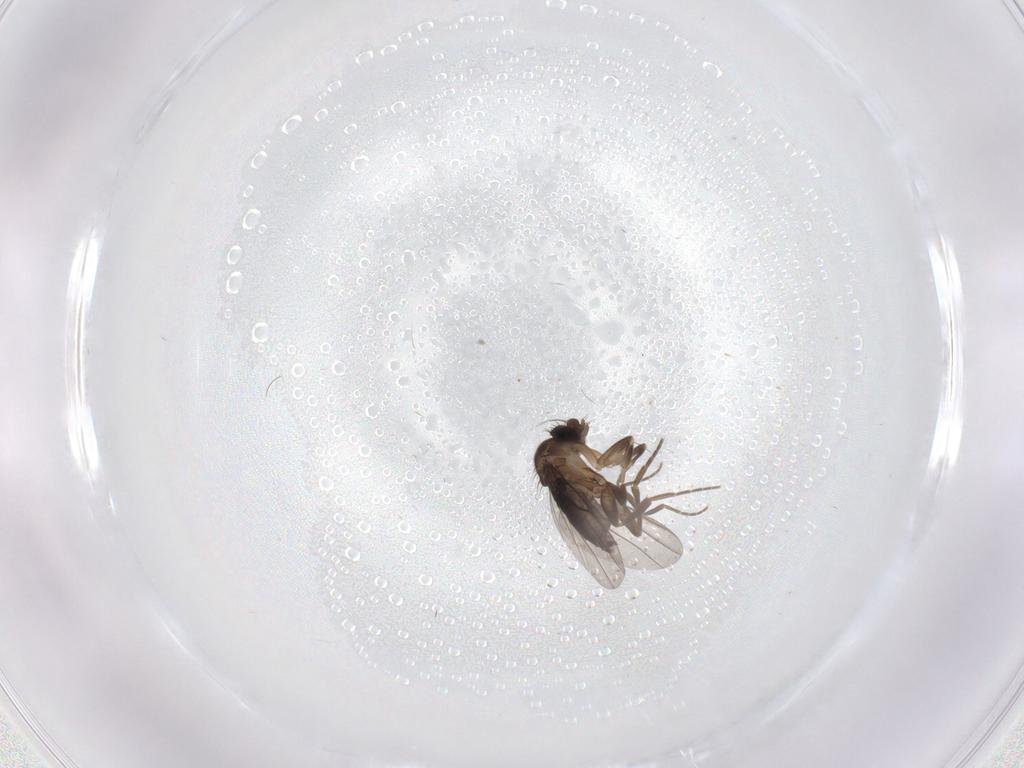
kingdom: Animalia
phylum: Arthropoda
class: Insecta
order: Diptera
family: Phoridae
